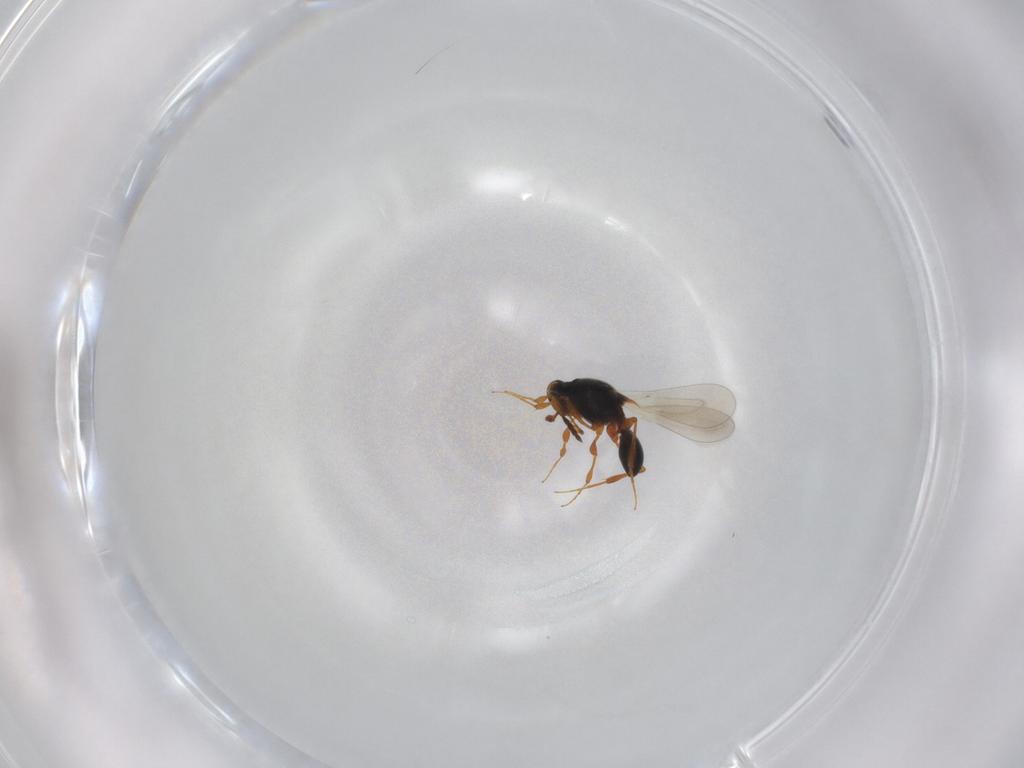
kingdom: Animalia
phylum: Arthropoda
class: Insecta
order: Hymenoptera
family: Platygastridae
